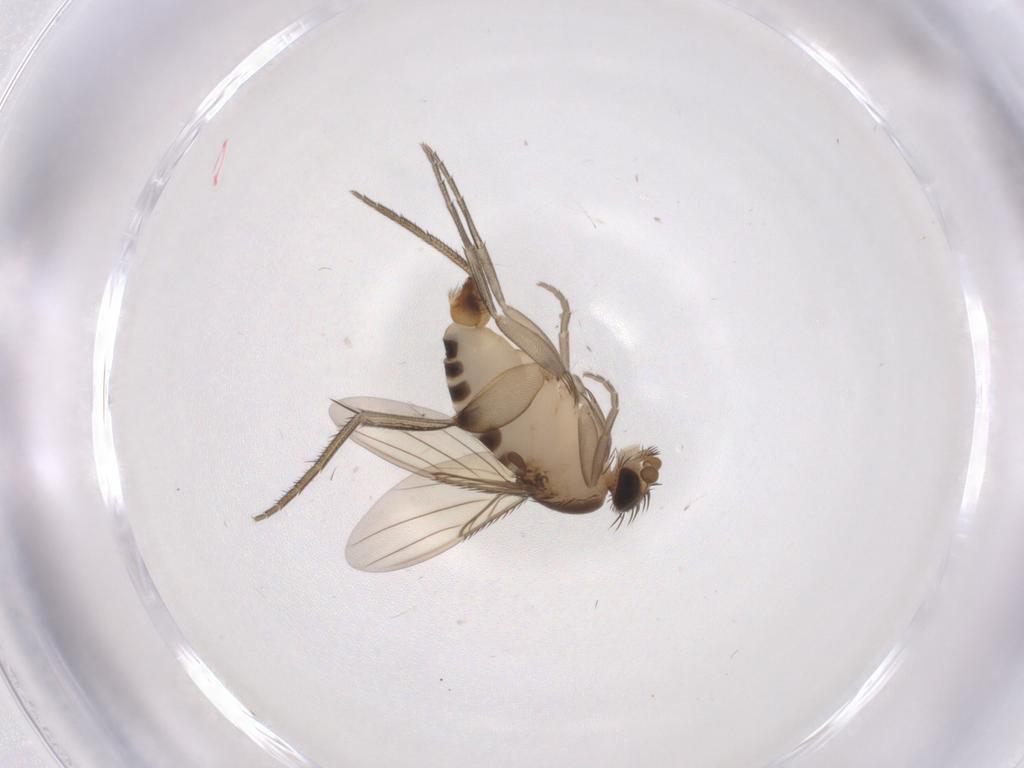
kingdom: Animalia
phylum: Arthropoda
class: Insecta
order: Diptera
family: Phoridae
